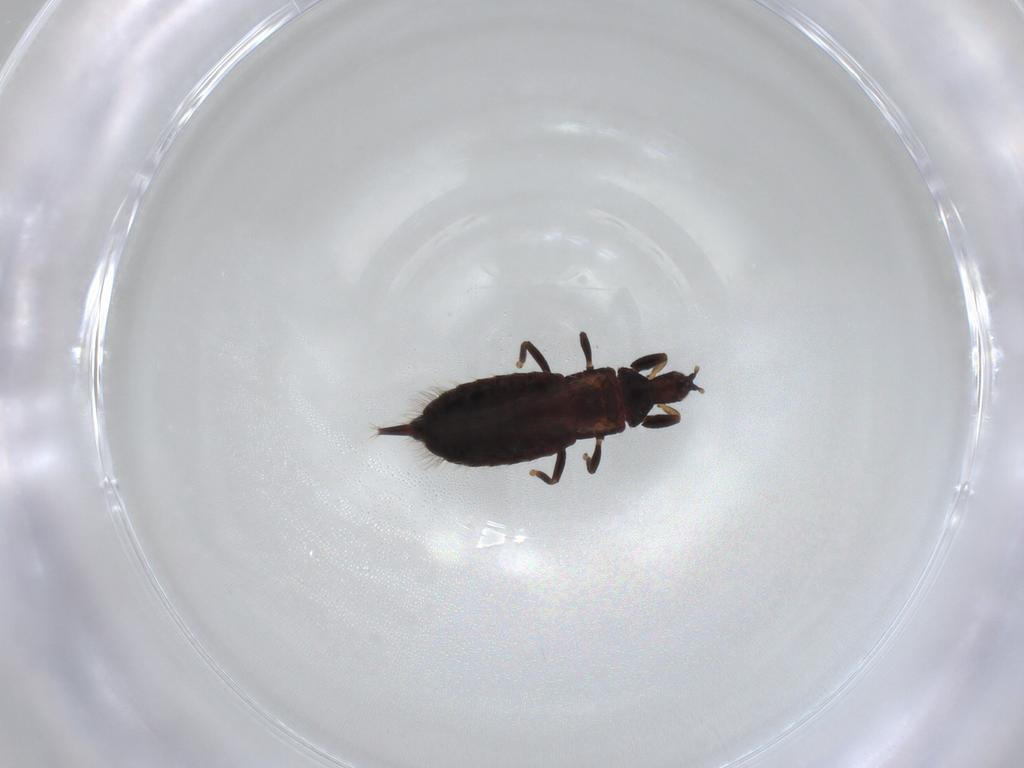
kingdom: Animalia
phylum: Arthropoda
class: Insecta
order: Thysanoptera
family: Phlaeothripidae
